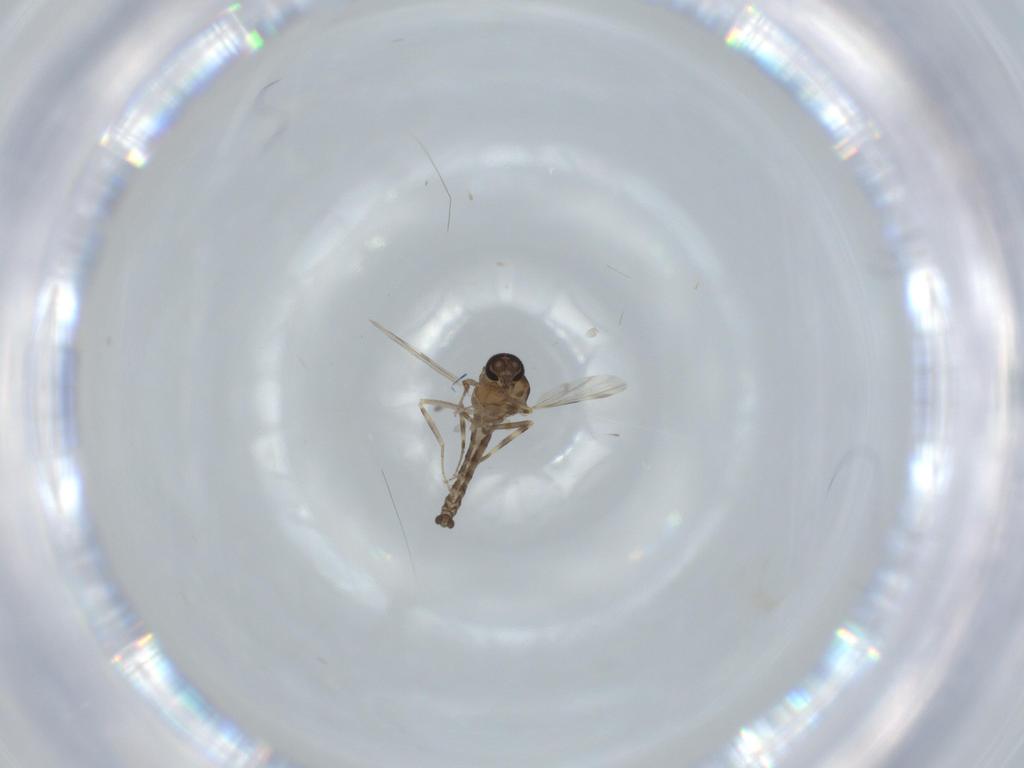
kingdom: Animalia
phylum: Arthropoda
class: Insecta
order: Diptera
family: Ceratopogonidae
